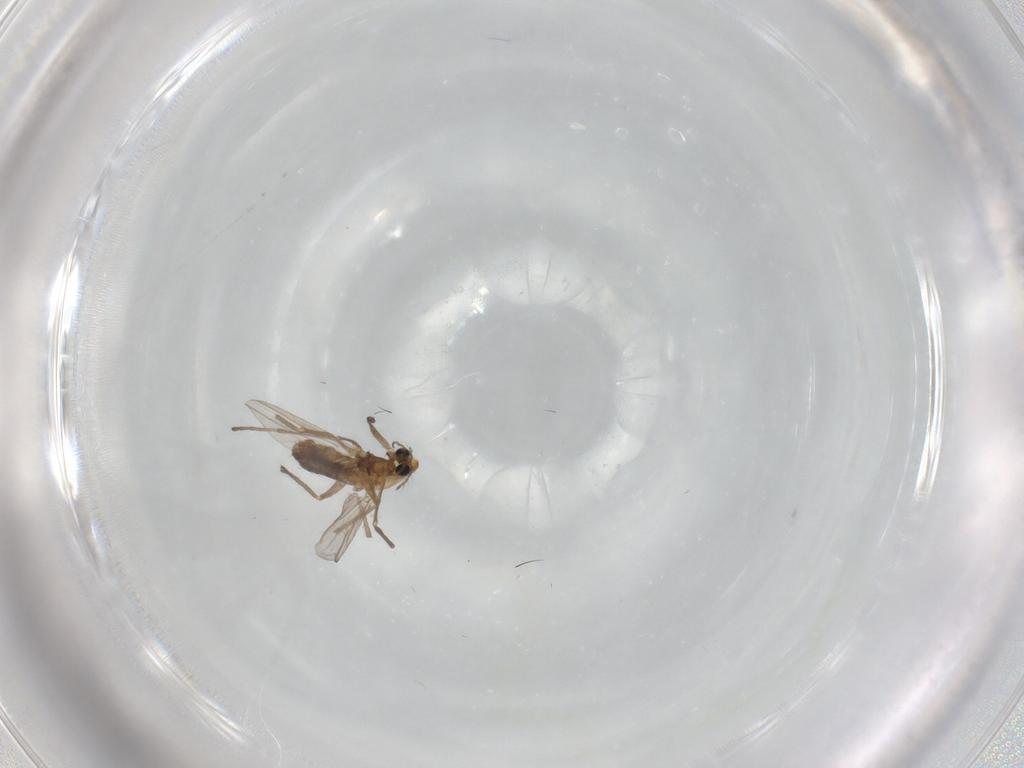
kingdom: Animalia
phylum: Arthropoda
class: Insecta
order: Diptera
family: Chironomidae
